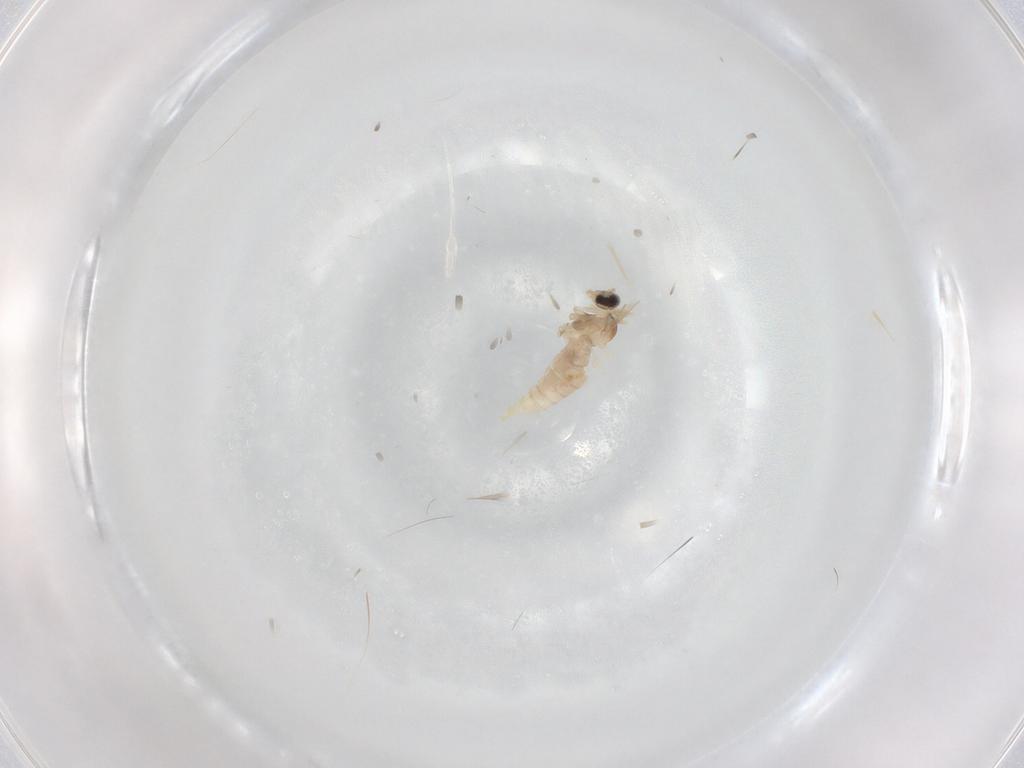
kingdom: Animalia
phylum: Arthropoda
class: Insecta
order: Diptera
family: Cecidomyiidae
